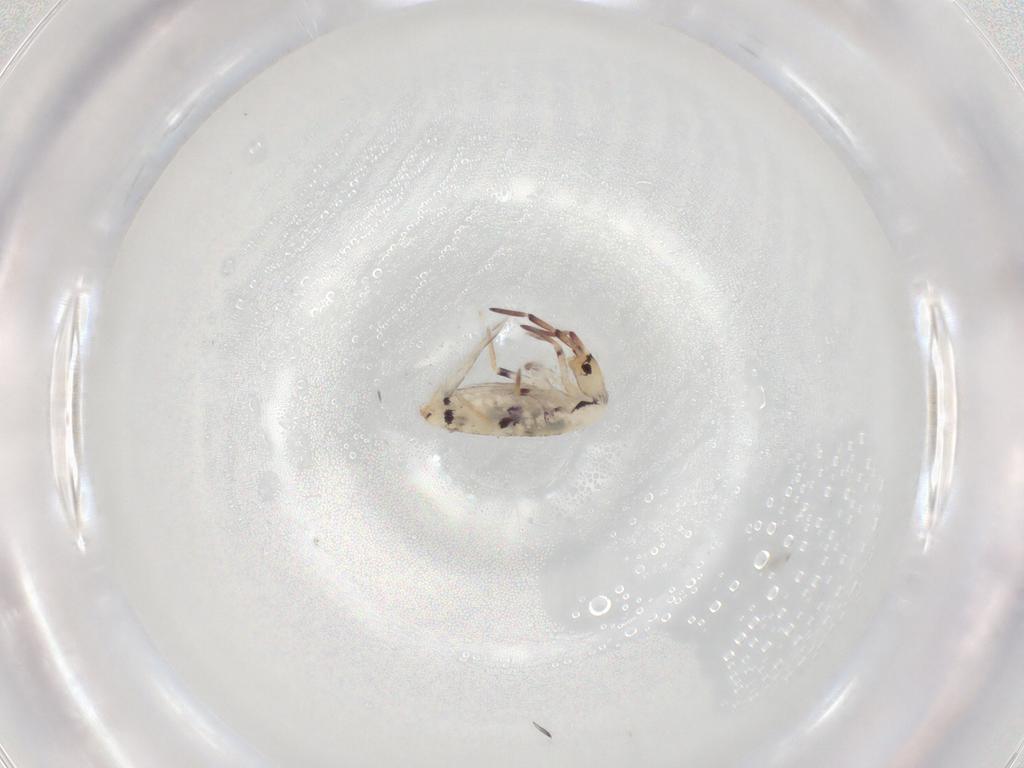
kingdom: Animalia
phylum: Arthropoda
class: Collembola
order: Entomobryomorpha
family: Entomobryidae
